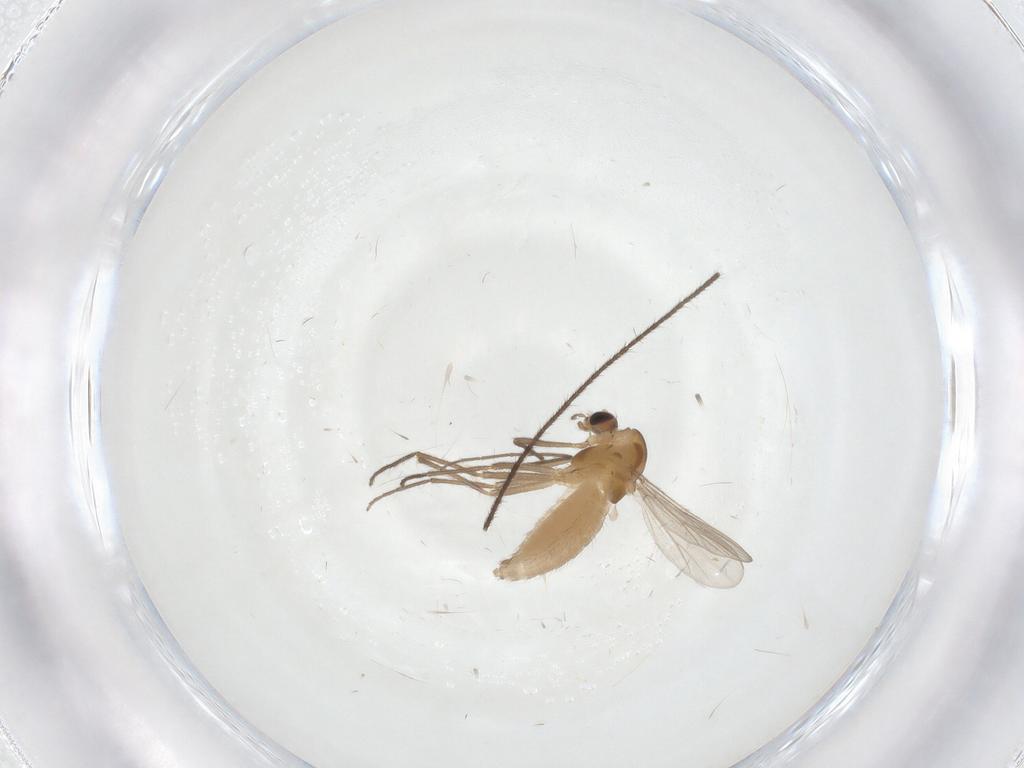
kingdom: Animalia
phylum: Arthropoda
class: Insecta
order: Diptera
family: Chironomidae
